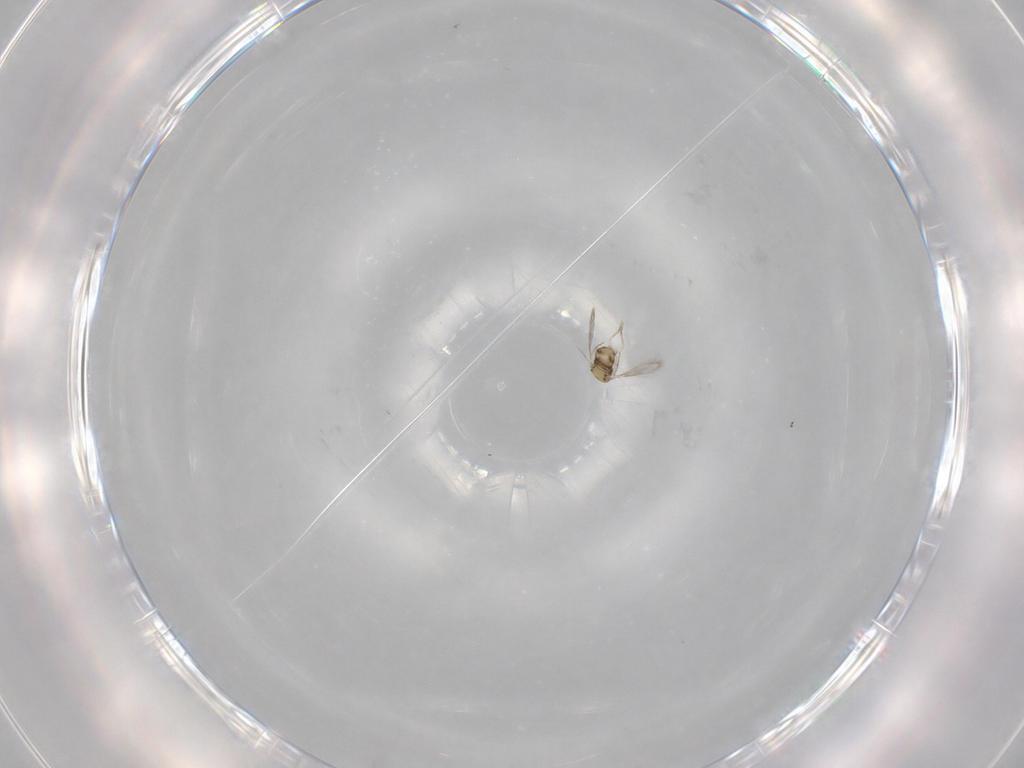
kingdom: Animalia
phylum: Arthropoda
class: Insecta
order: Hymenoptera
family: Aphelinidae
